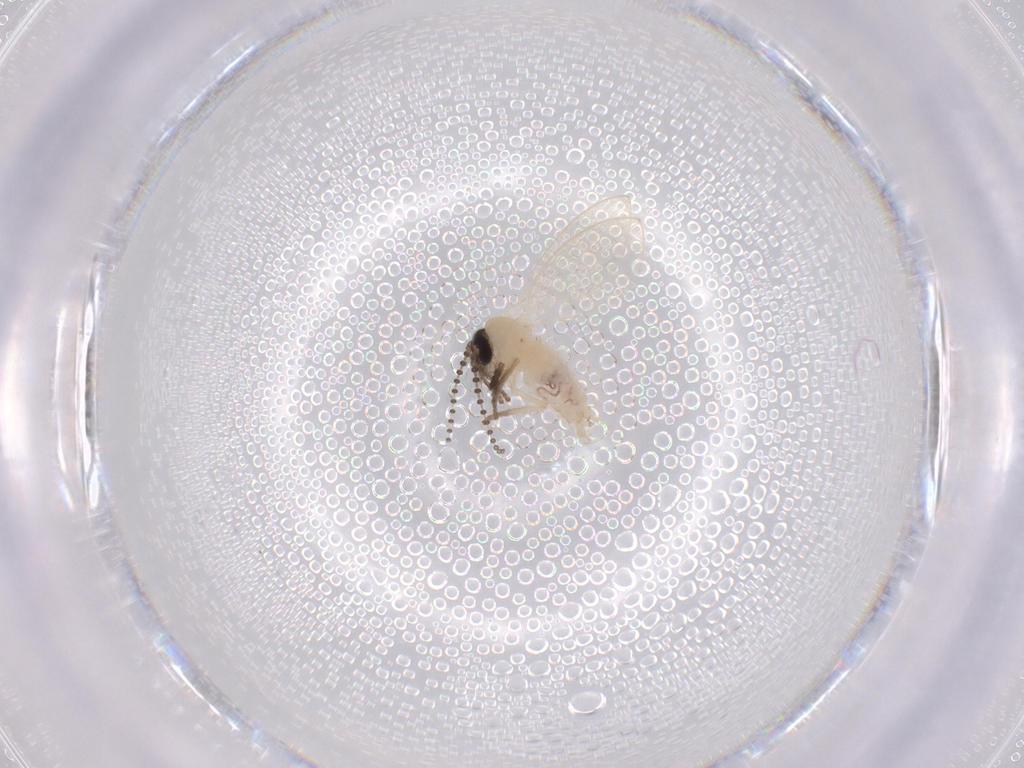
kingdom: Animalia
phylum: Arthropoda
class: Insecta
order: Diptera
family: Psychodidae
